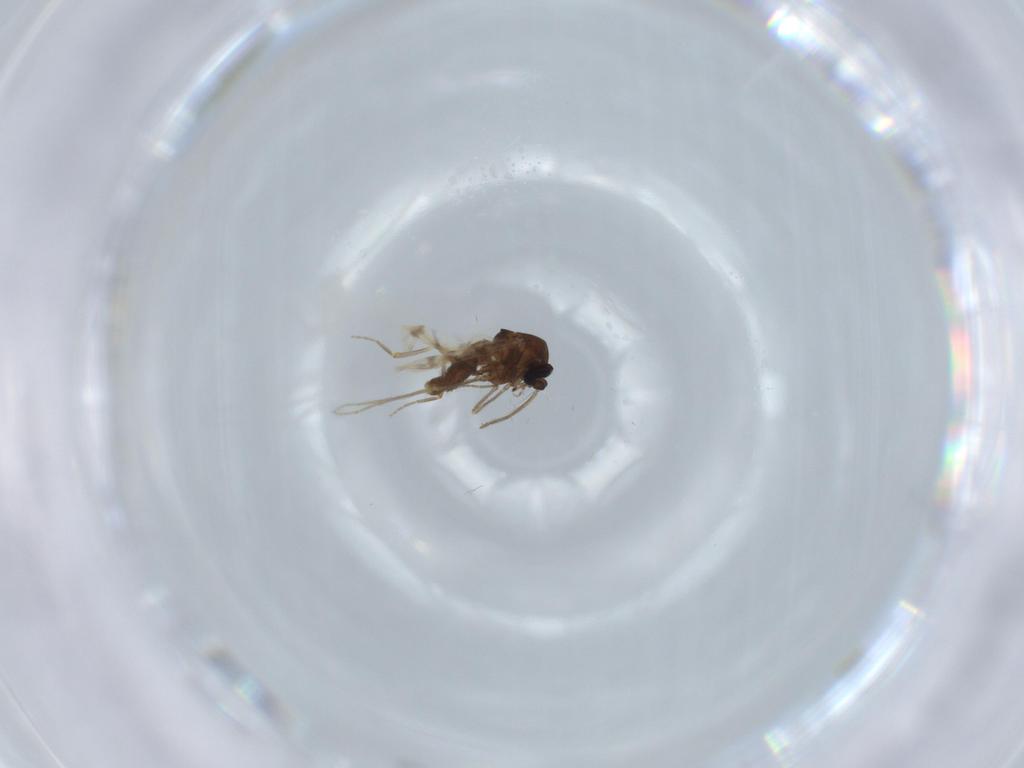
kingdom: Animalia
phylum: Arthropoda
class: Insecta
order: Diptera
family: Ceratopogonidae
